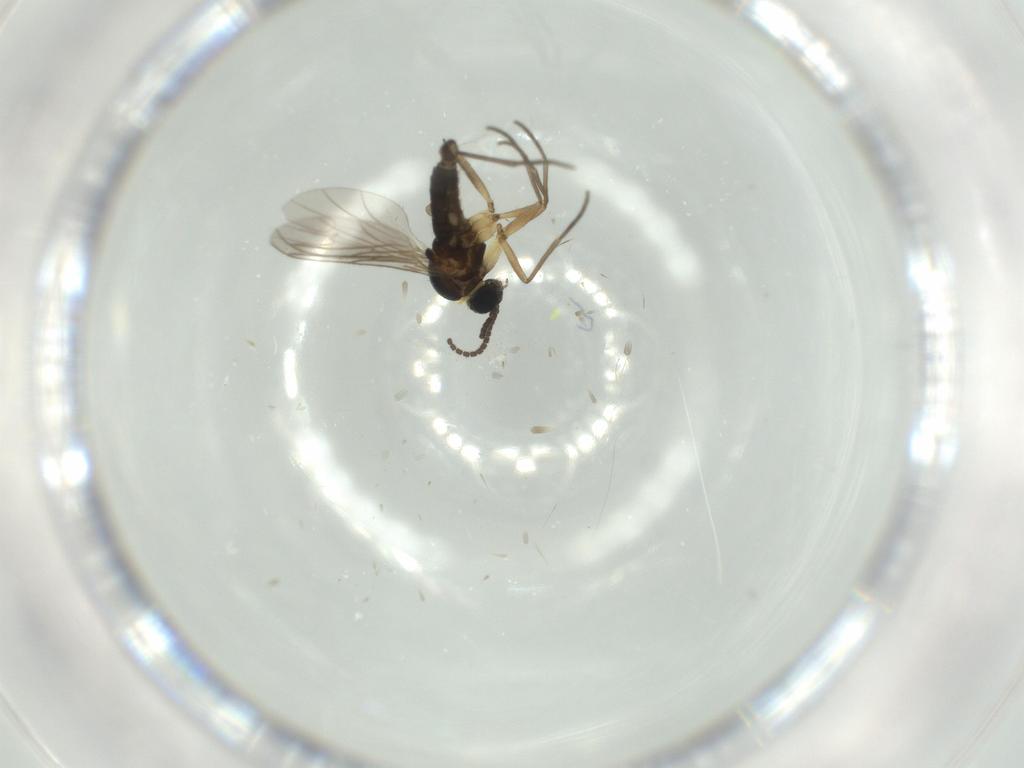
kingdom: Animalia
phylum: Arthropoda
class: Insecta
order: Diptera
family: Sciaridae
